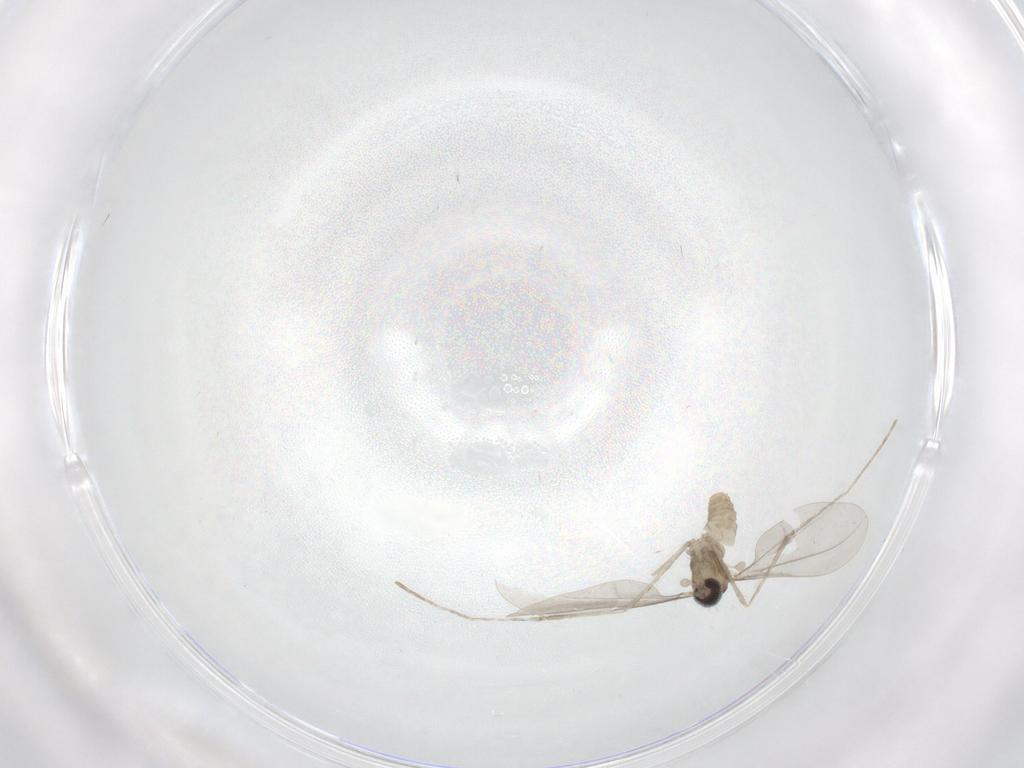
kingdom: Animalia
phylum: Arthropoda
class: Insecta
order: Diptera
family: Cecidomyiidae
